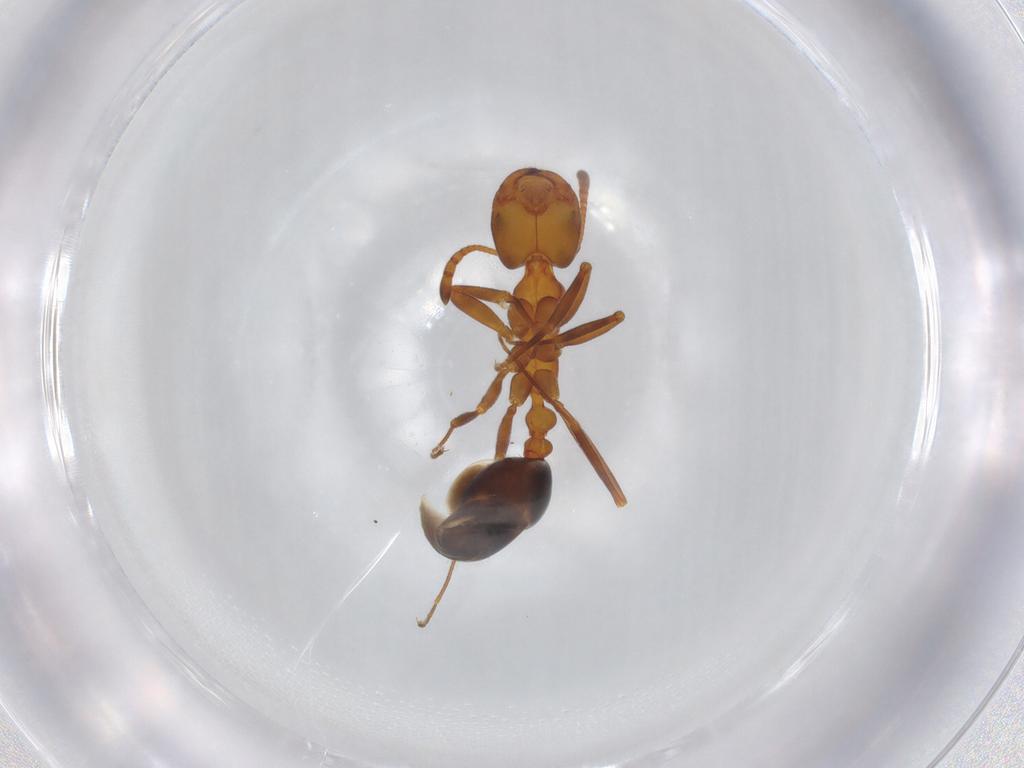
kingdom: Animalia
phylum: Arthropoda
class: Insecta
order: Hymenoptera
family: Formicidae
